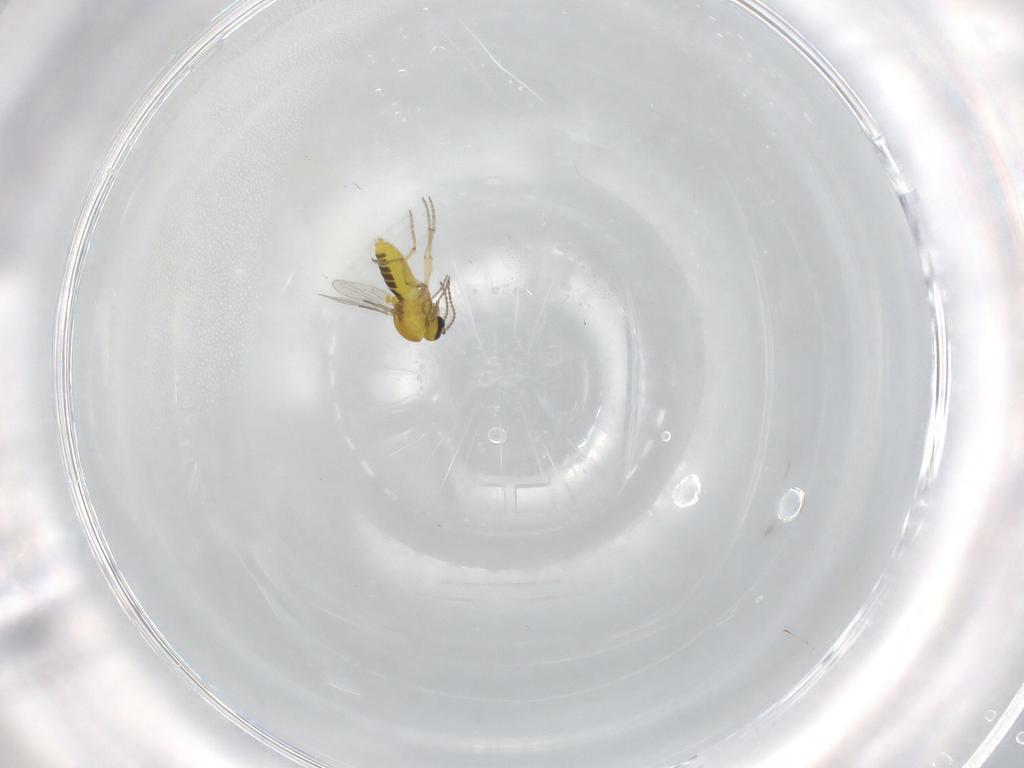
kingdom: Animalia
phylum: Arthropoda
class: Insecta
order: Diptera
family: Ceratopogonidae
